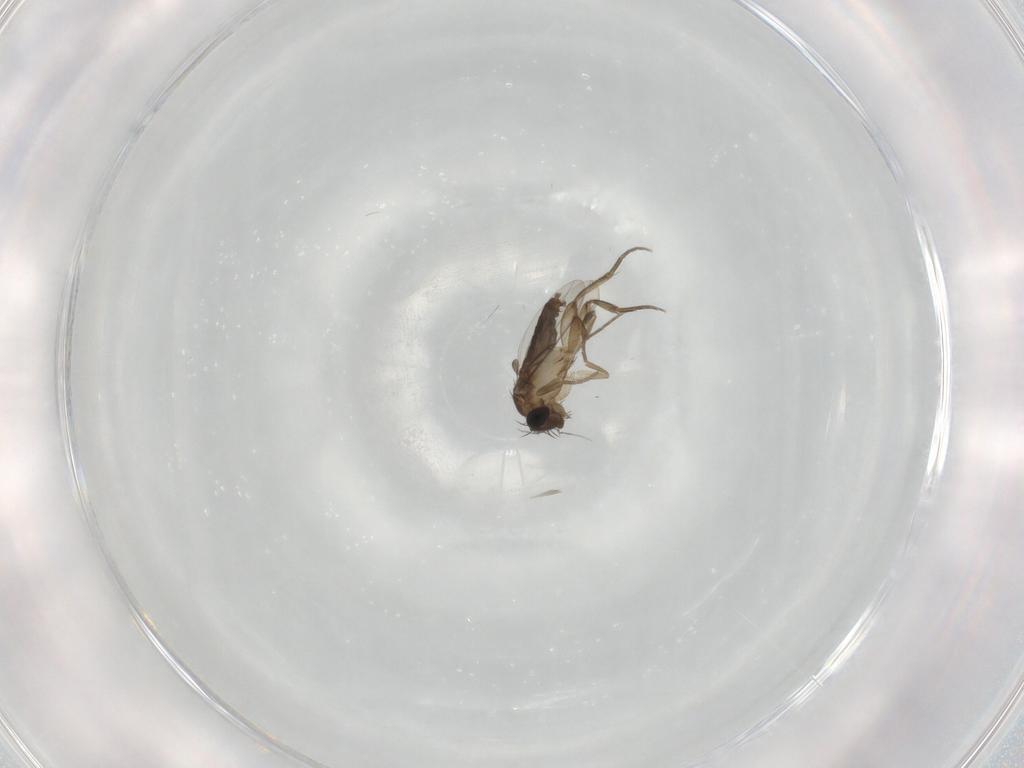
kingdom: Animalia
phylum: Arthropoda
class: Insecta
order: Diptera
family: Phoridae
